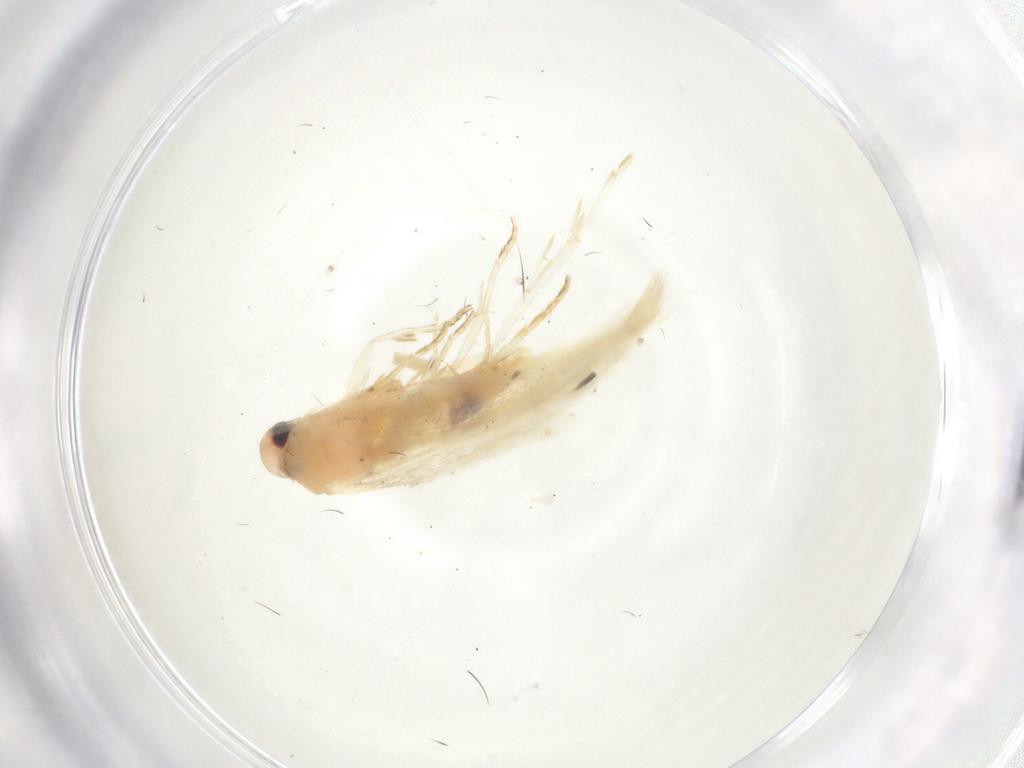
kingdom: Animalia
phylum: Arthropoda
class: Insecta
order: Lepidoptera
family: Cosmopterigidae
